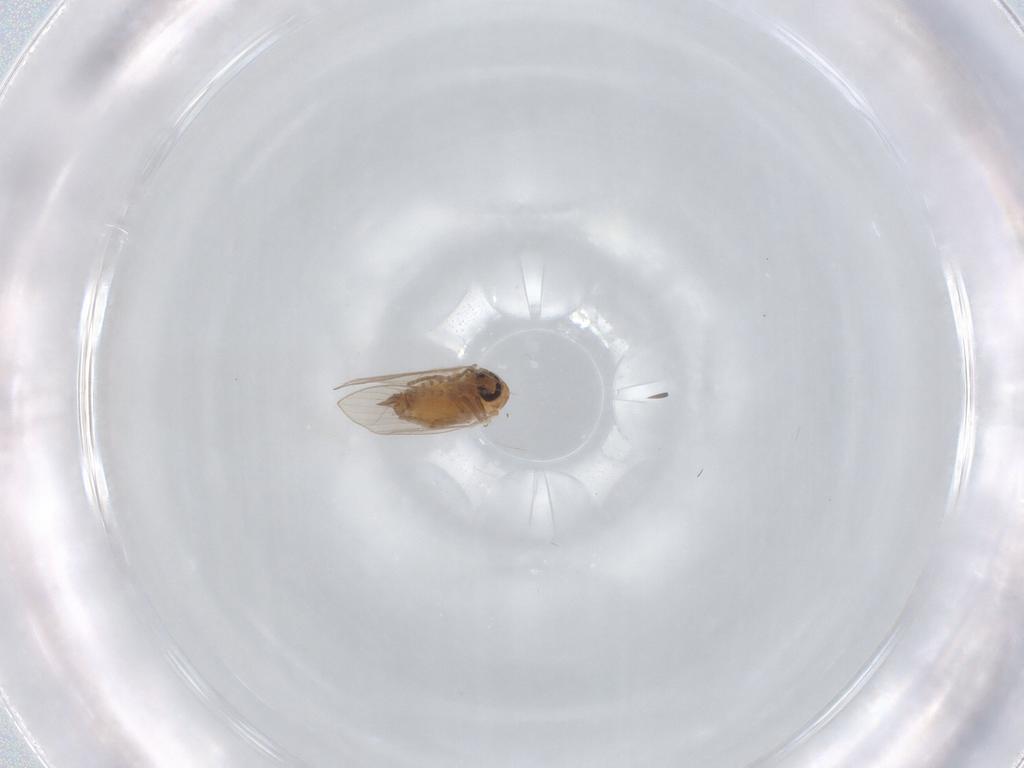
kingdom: Animalia
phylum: Arthropoda
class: Insecta
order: Diptera
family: Psychodidae
